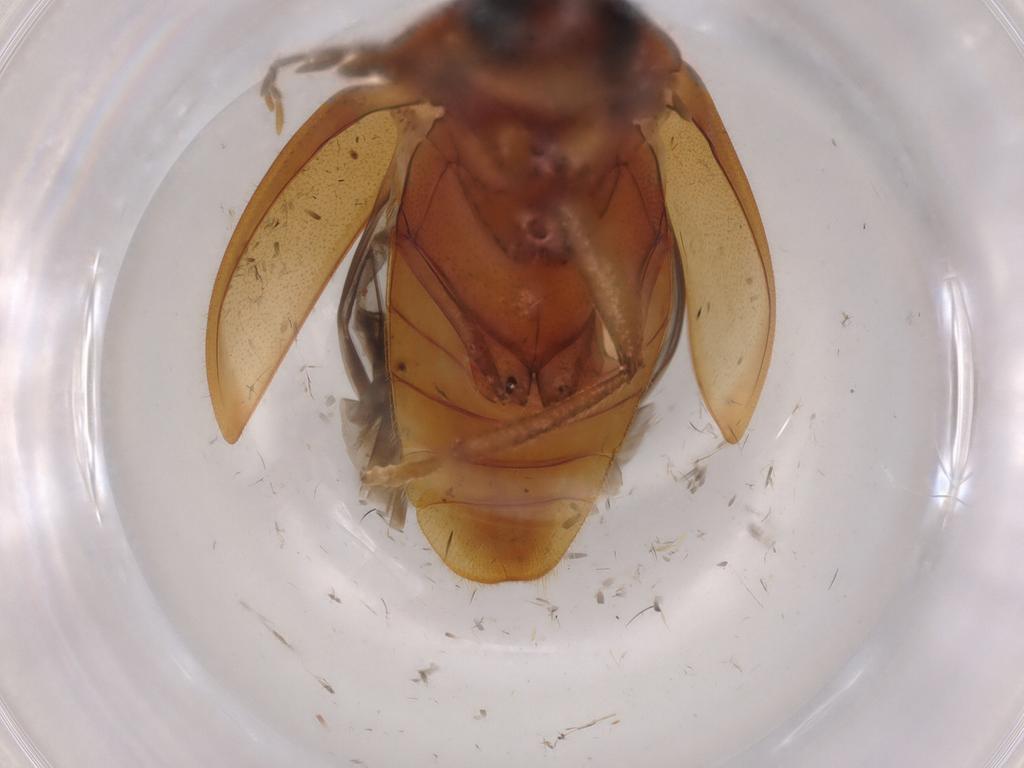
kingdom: Animalia
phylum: Arthropoda
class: Insecta
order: Coleoptera
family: Ptilodactylidae
